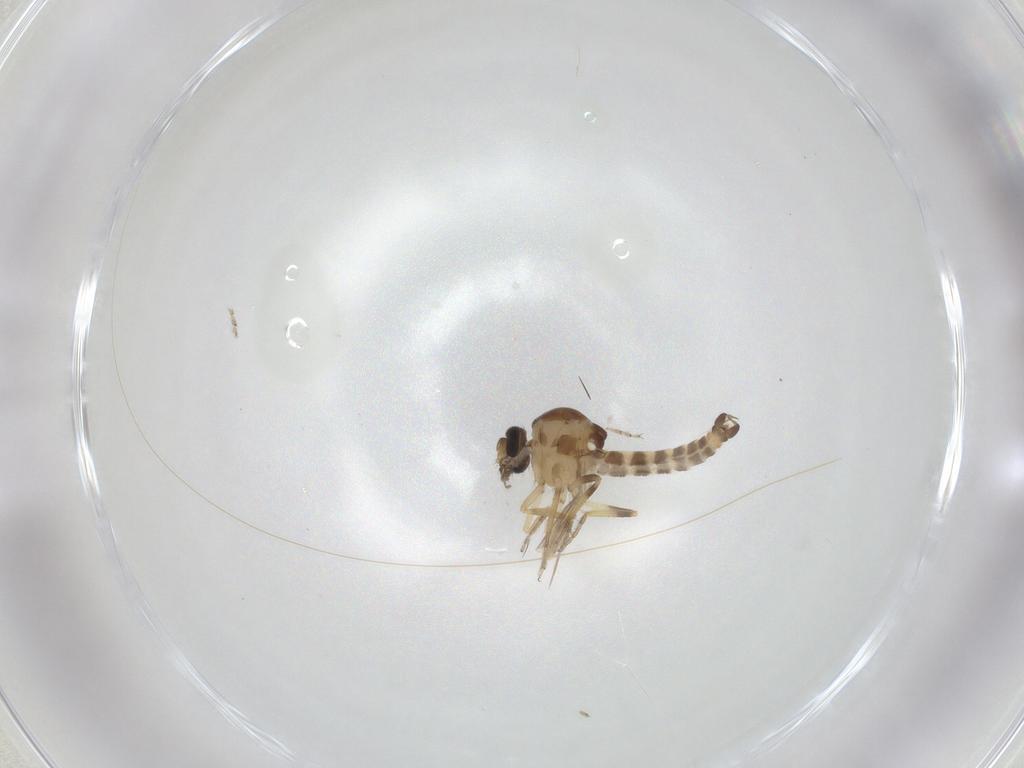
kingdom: Animalia
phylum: Arthropoda
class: Insecta
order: Diptera
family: Ceratopogonidae
